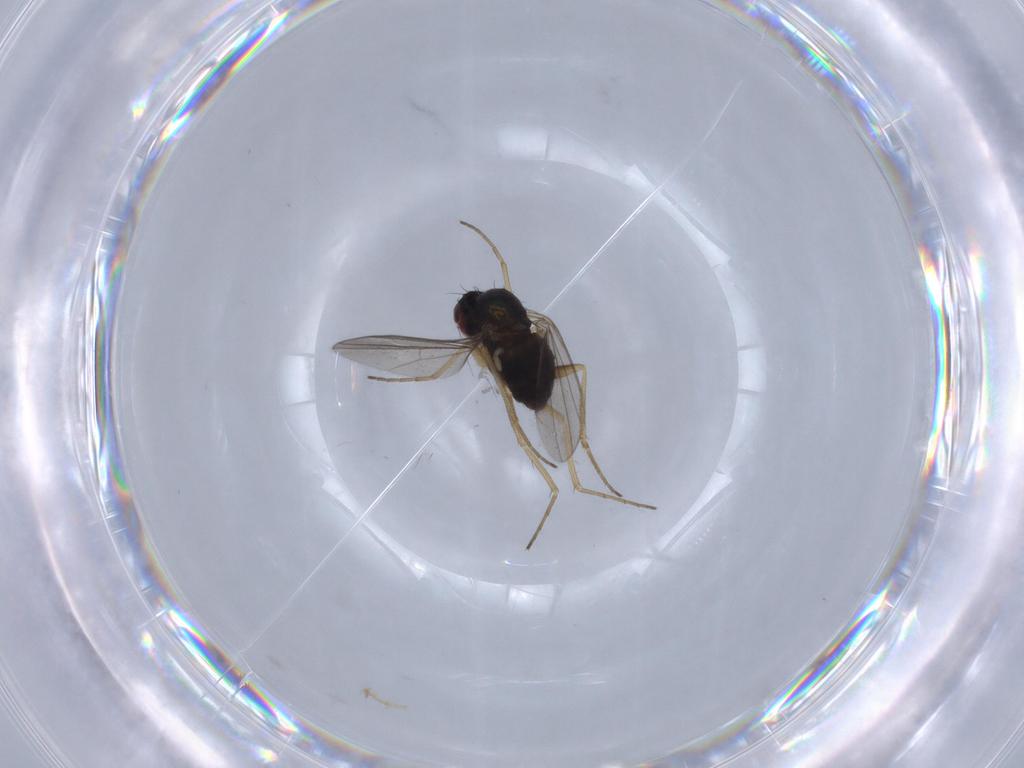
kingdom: Animalia
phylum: Arthropoda
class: Insecta
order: Diptera
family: Dolichopodidae
